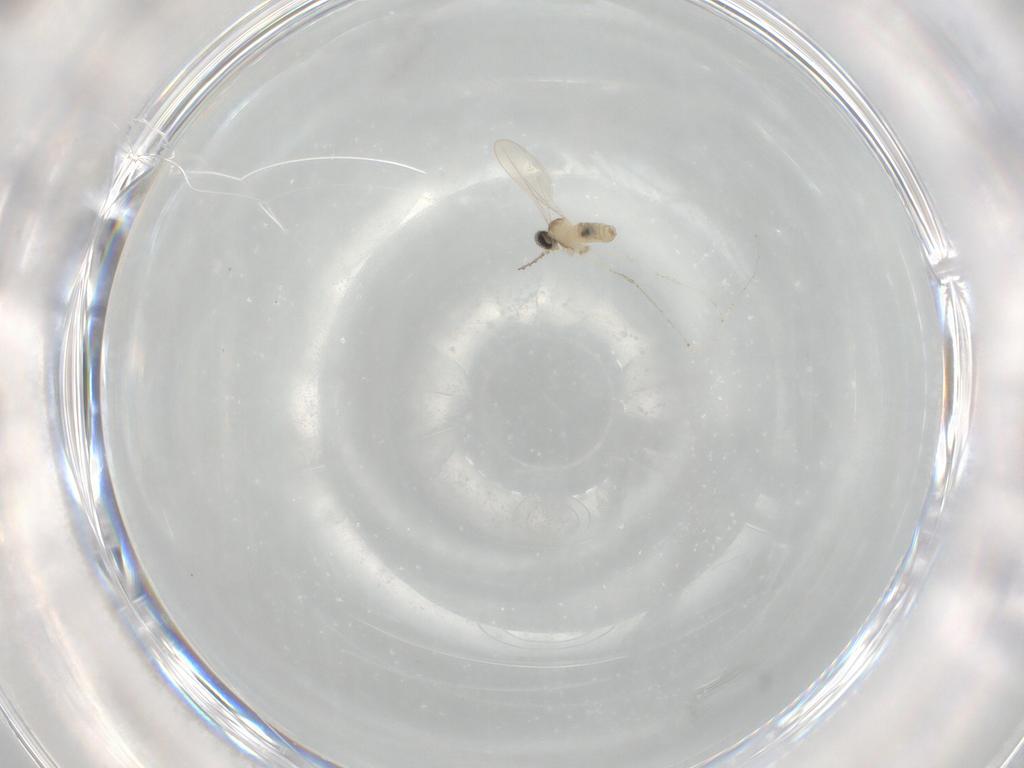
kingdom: Animalia
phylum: Arthropoda
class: Insecta
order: Diptera
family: Cecidomyiidae
